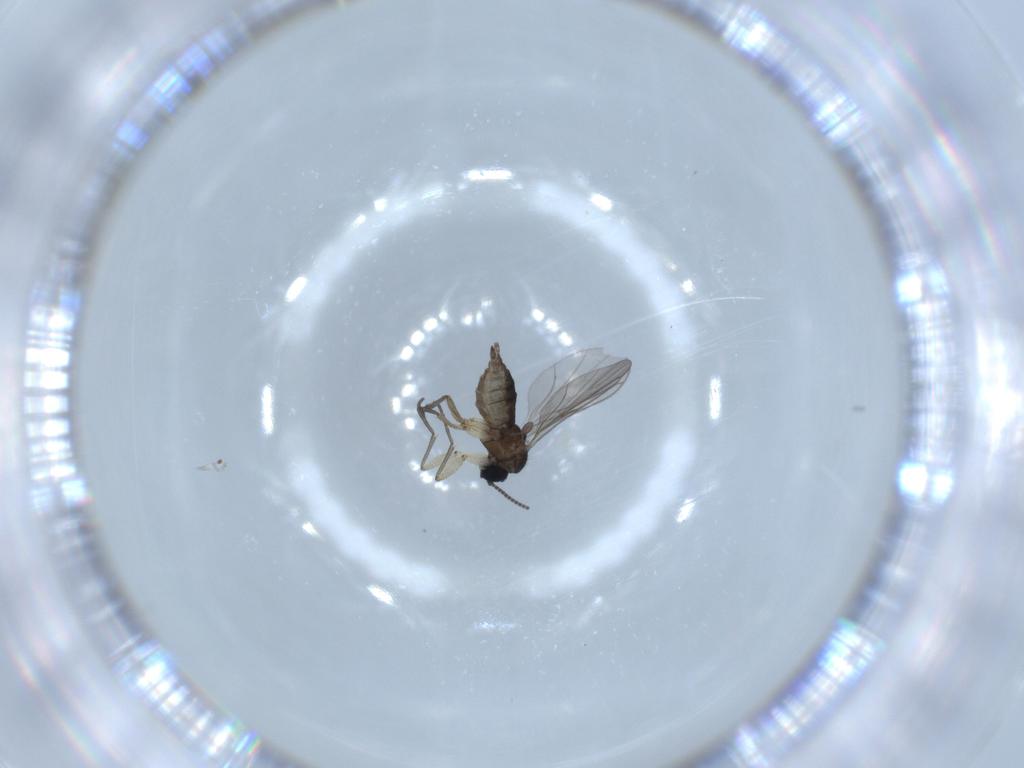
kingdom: Animalia
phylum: Arthropoda
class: Insecta
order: Diptera
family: Sciaridae
